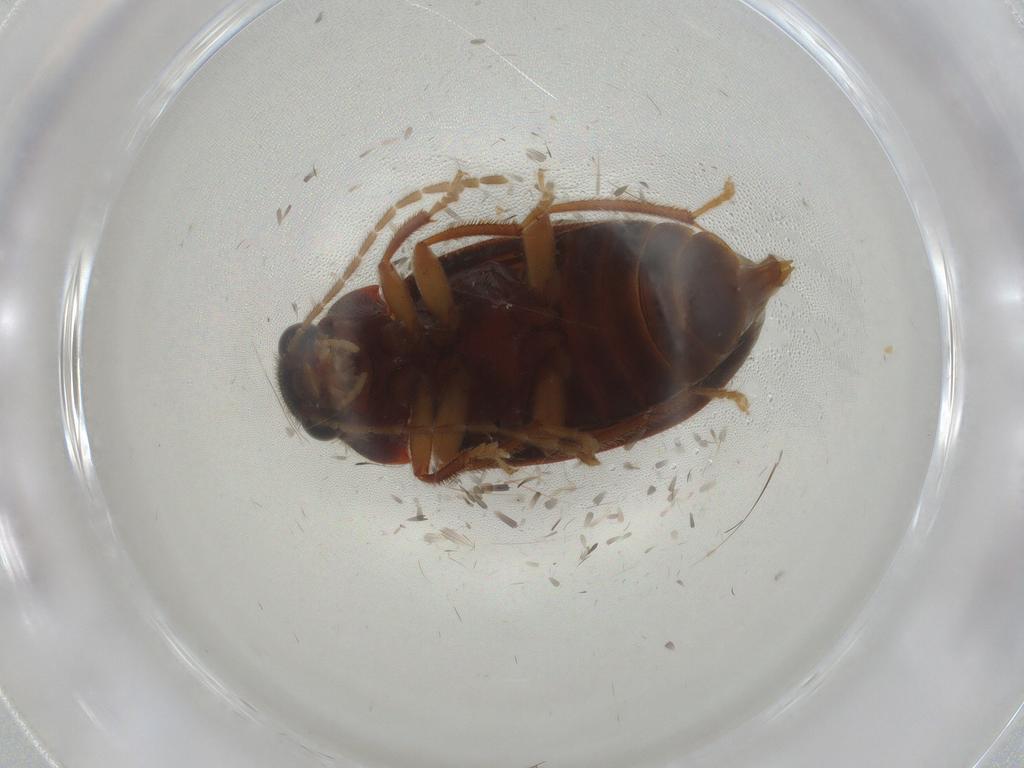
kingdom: Animalia
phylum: Arthropoda
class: Insecta
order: Coleoptera
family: Ptilodactylidae
